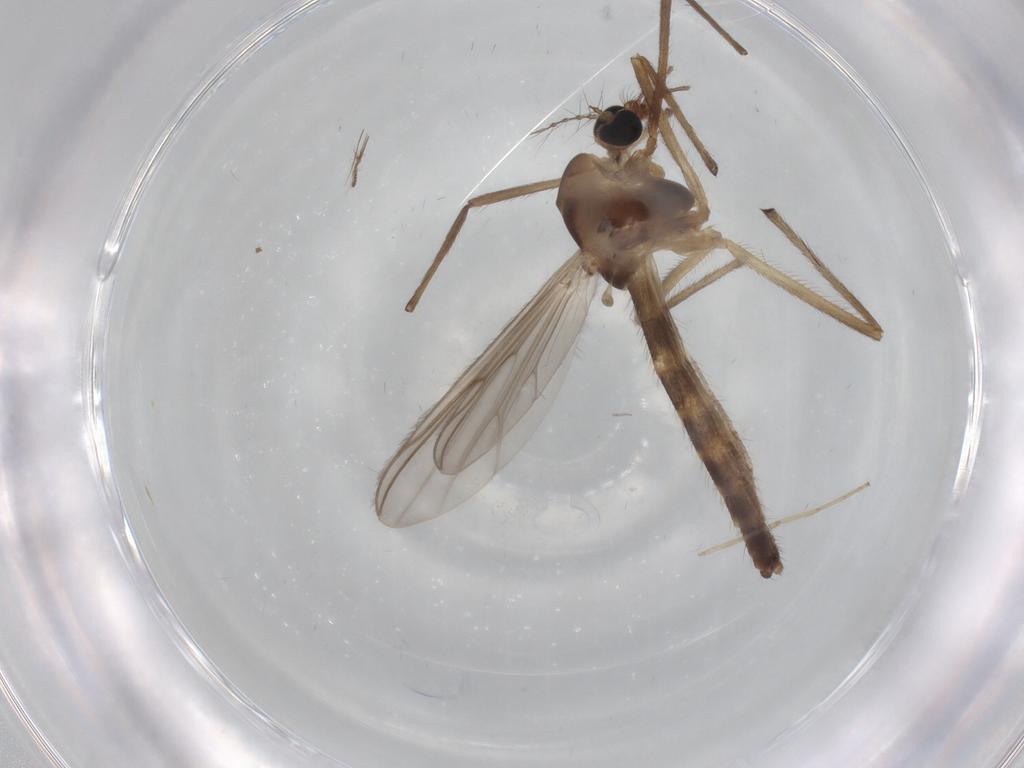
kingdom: Animalia
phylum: Arthropoda
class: Insecta
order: Diptera
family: Chironomidae
